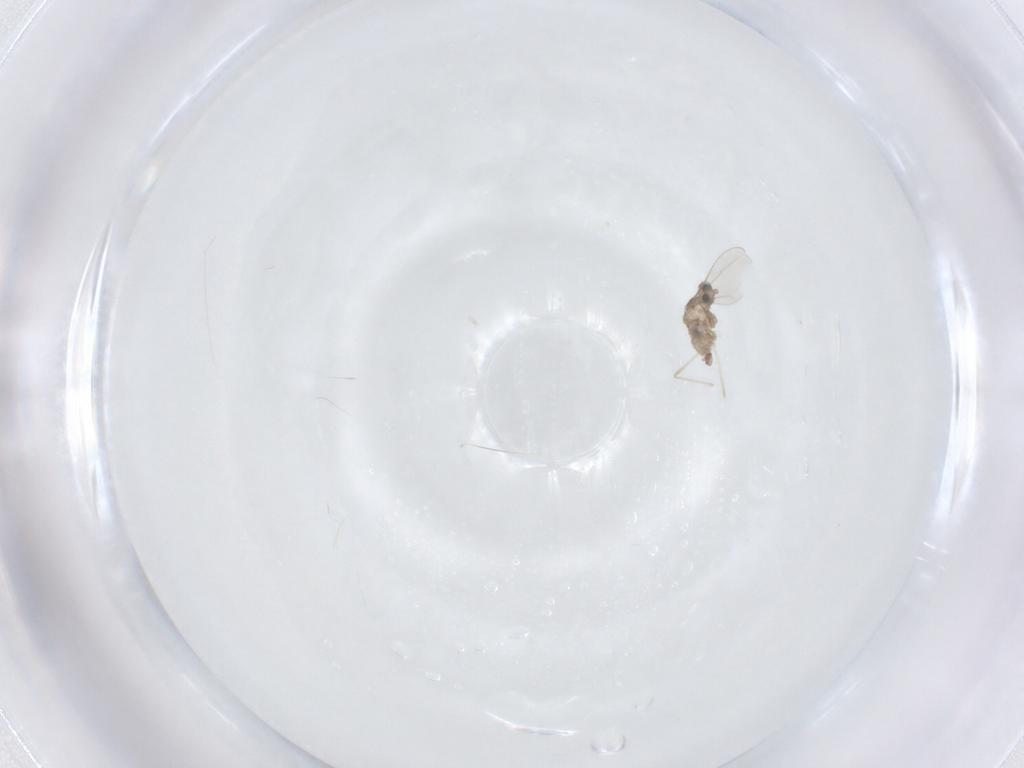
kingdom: Animalia
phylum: Arthropoda
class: Insecta
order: Diptera
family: Cecidomyiidae
